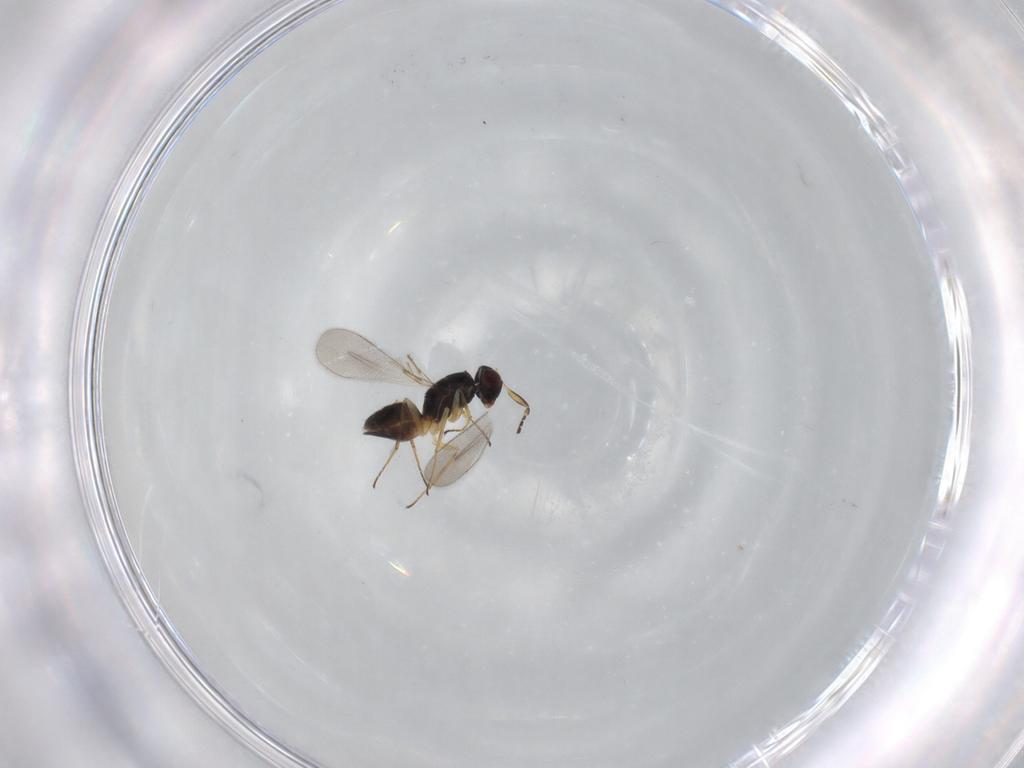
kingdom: Animalia
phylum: Arthropoda
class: Insecta
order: Hymenoptera
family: Mymaridae
